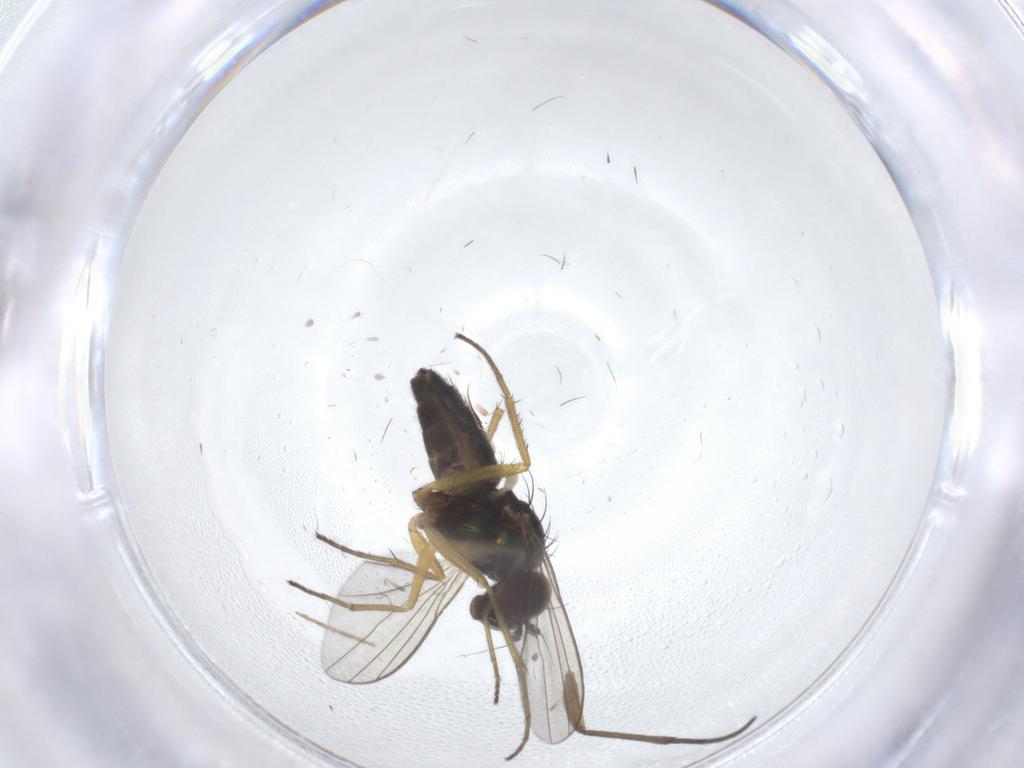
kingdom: Animalia
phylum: Arthropoda
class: Insecta
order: Diptera
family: Dolichopodidae
